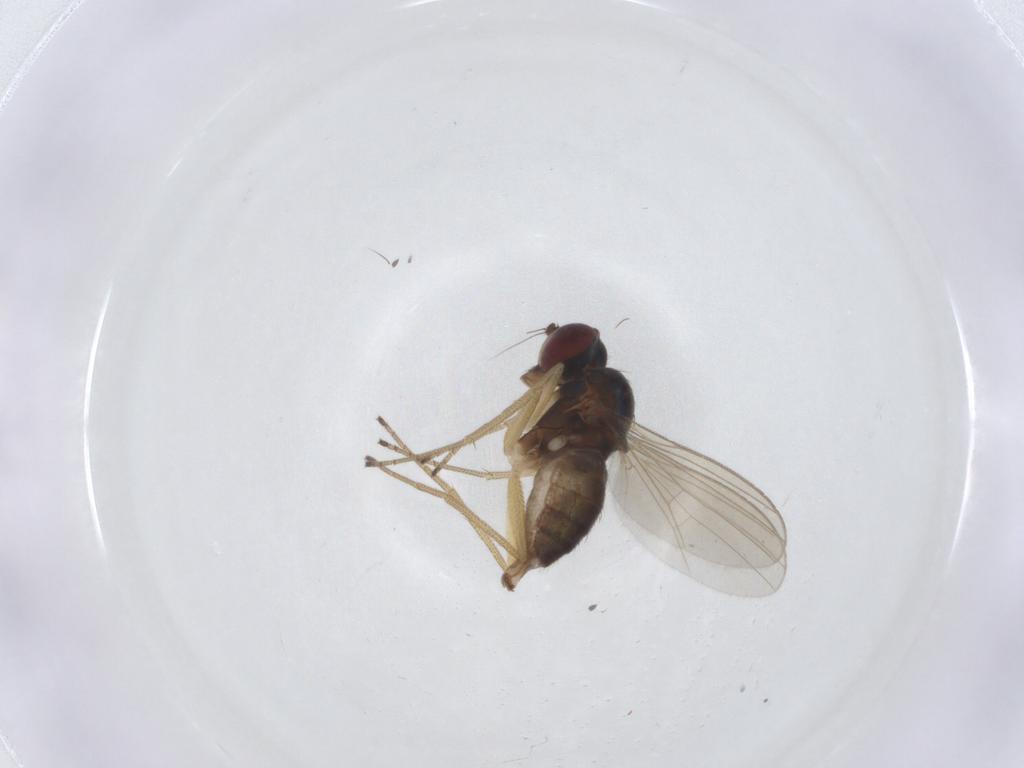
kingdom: Animalia
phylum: Arthropoda
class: Insecta
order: Diptera
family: Dolichopodidae
